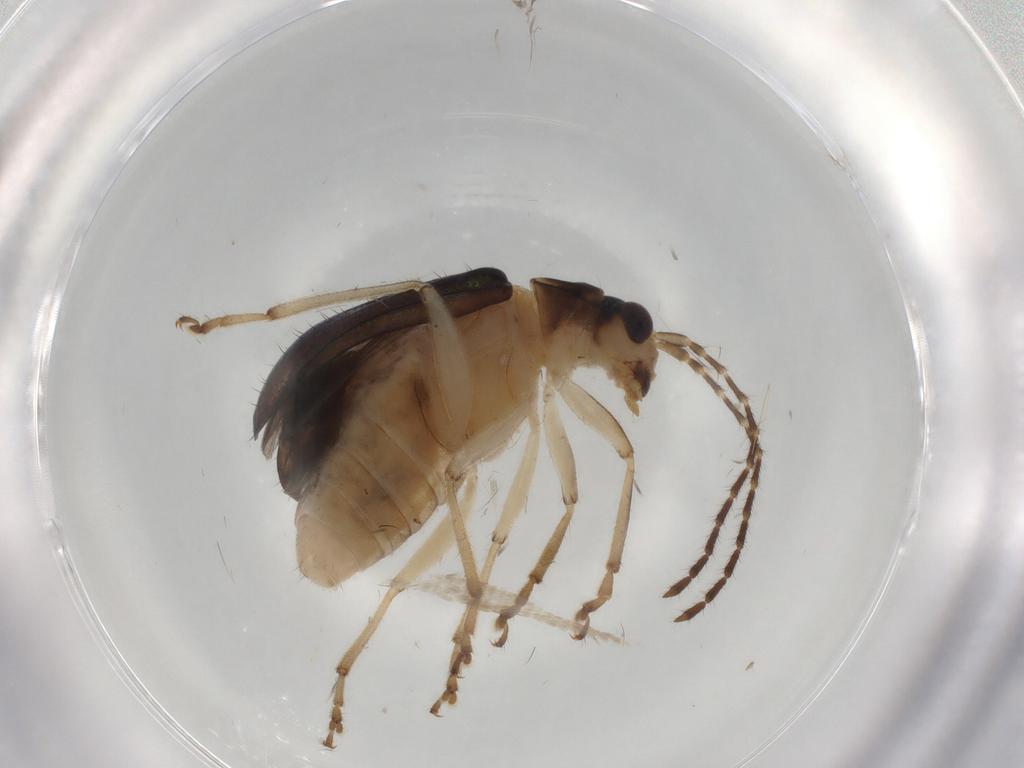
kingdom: Animalia
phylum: Arthropoda
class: Insecta
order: Coleoptera
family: Chrysomelidae
